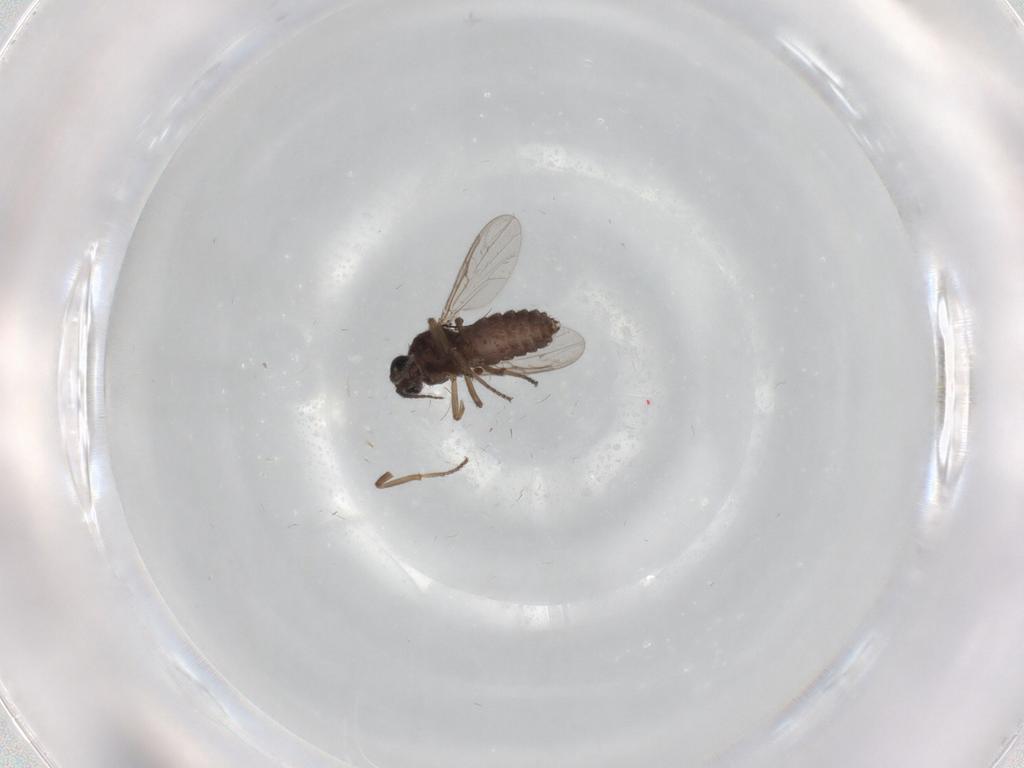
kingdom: Animalia
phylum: Arthropoda
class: Insecta
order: Diptera
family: Ceratopogonidae
